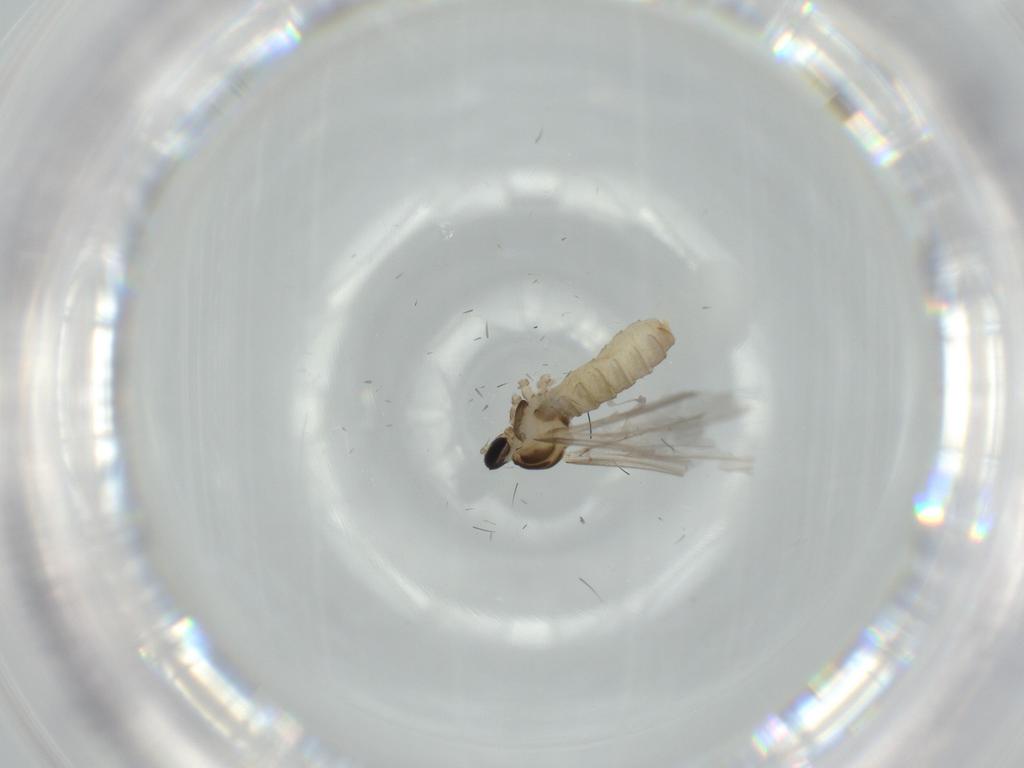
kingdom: Animalia
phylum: Arthropoda
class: Insecta
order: Diptera
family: Cecidomyiidae
